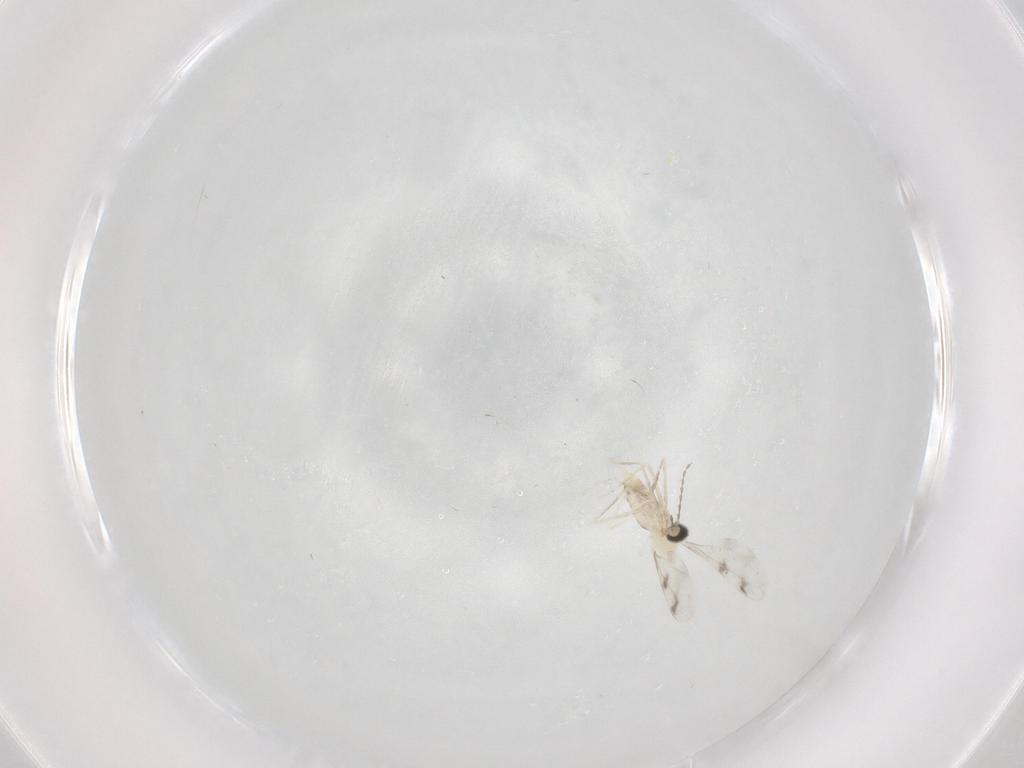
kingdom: Animalia
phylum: Arthropoda
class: Insecta
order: Diptera
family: Cecidomyiidae
